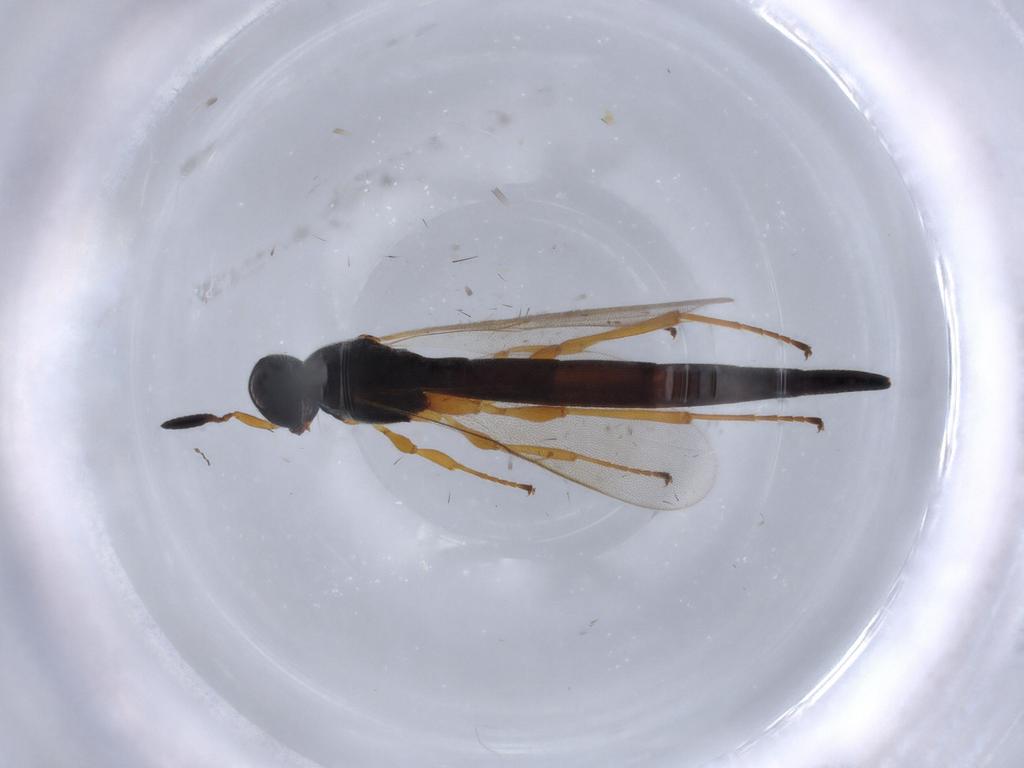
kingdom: Animalia
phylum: Arthropoda
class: Insecta
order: Hymenoptera
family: Scelionidae
